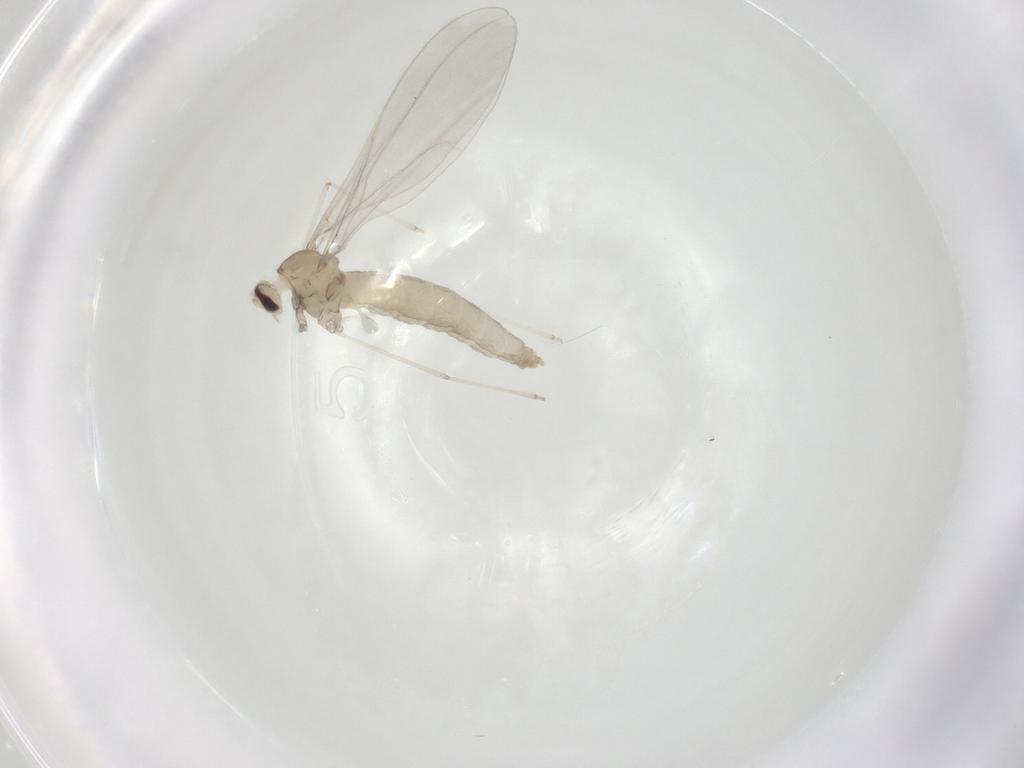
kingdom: Animalia
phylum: Arthropoda
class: Insecta
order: Diptera
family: Cecidomyiidae
